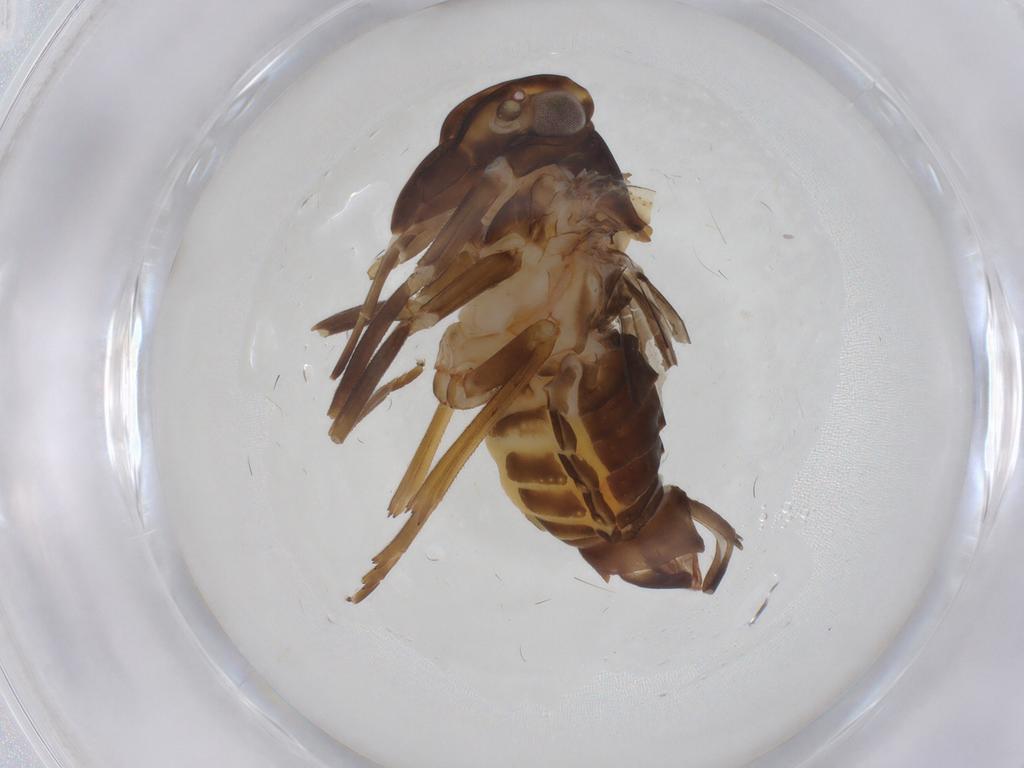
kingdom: Animalia
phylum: Arthropoda
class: Insecta
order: Hemiptera
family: Cixiidae
